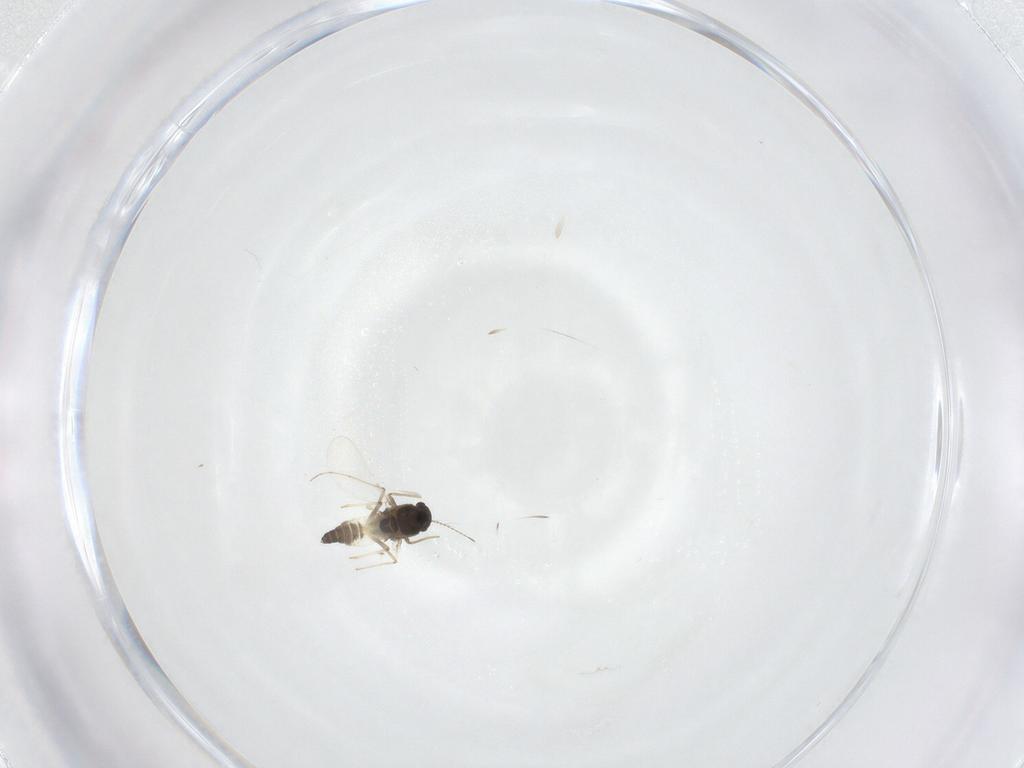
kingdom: Animalia
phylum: Arthropoda
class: Insecta
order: Diptera
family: Chironomidae
